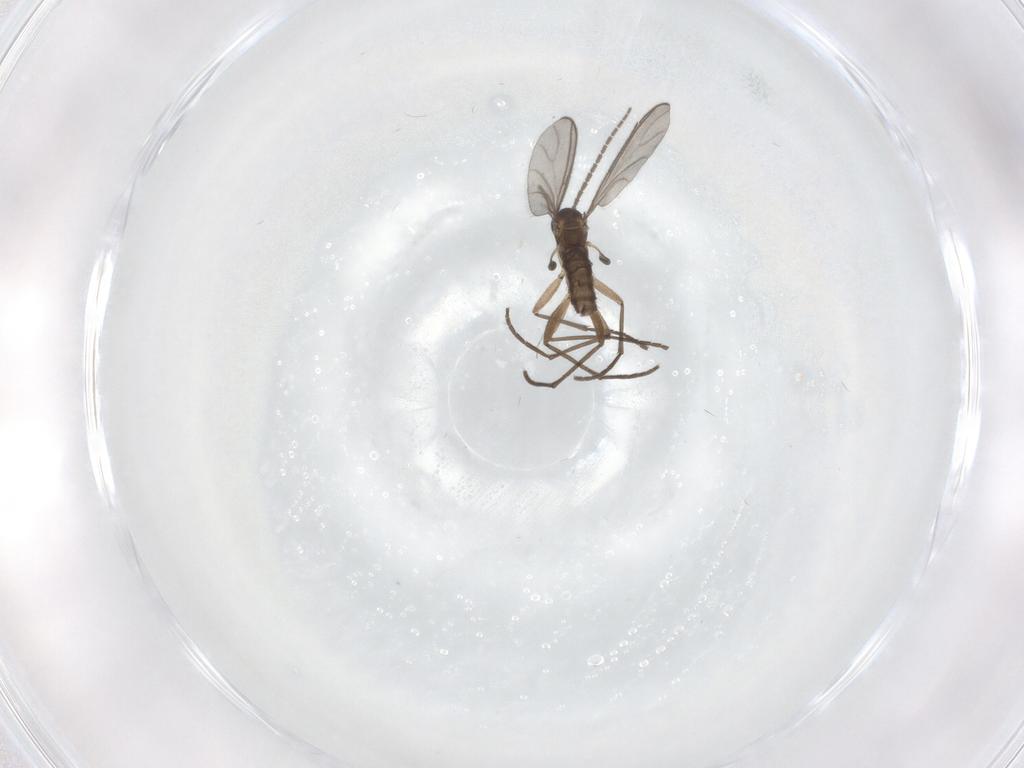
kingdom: Animalia
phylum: Arthropoda
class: Insecta
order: Diptera
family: Sciaridae
